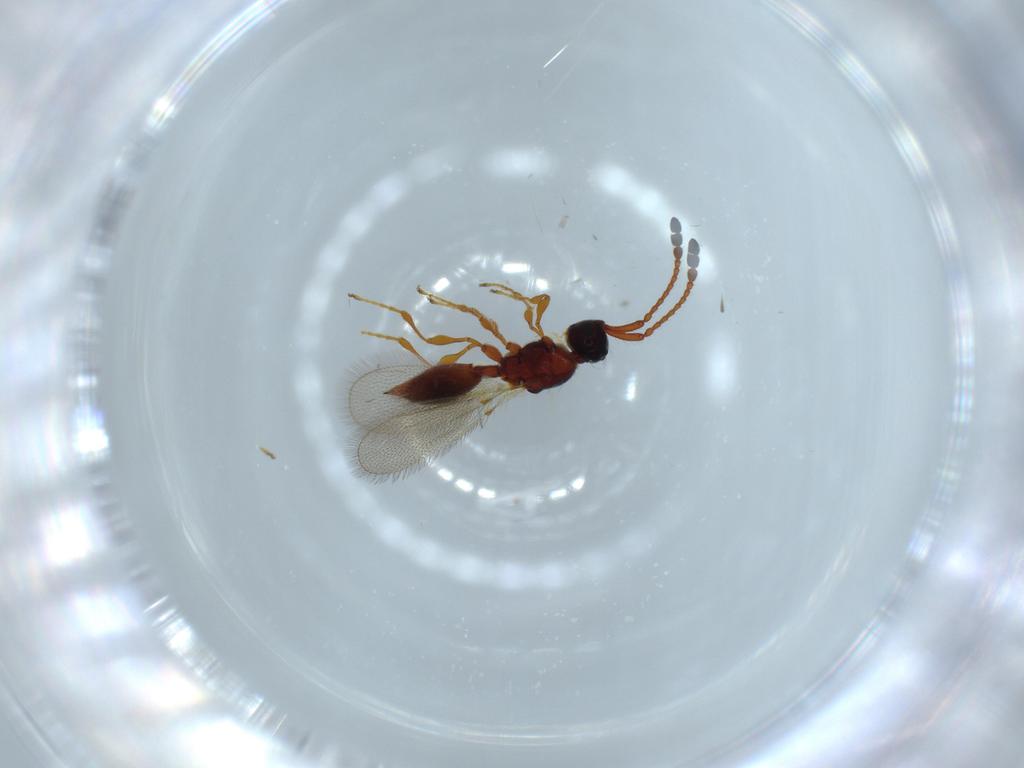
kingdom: Animalia
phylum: Arthropoda
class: Insecta
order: Hymenoptera
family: Diapriidae
